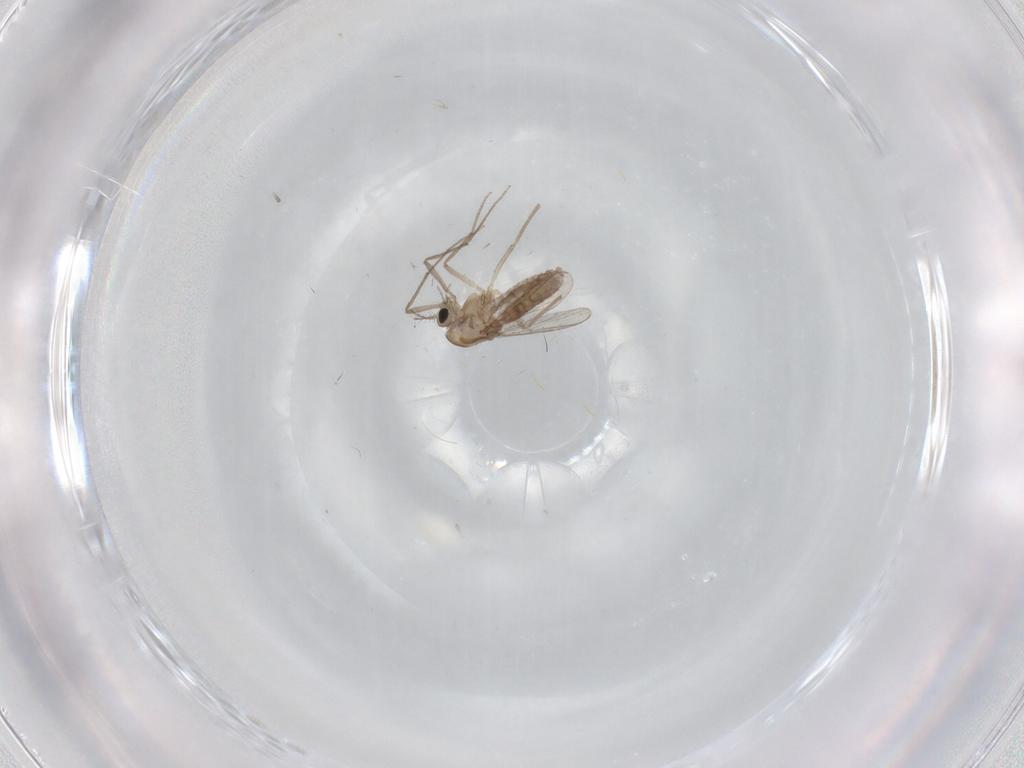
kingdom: Animalia
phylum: Arthropoda
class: Insecta
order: Diptera
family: Chironomidae
